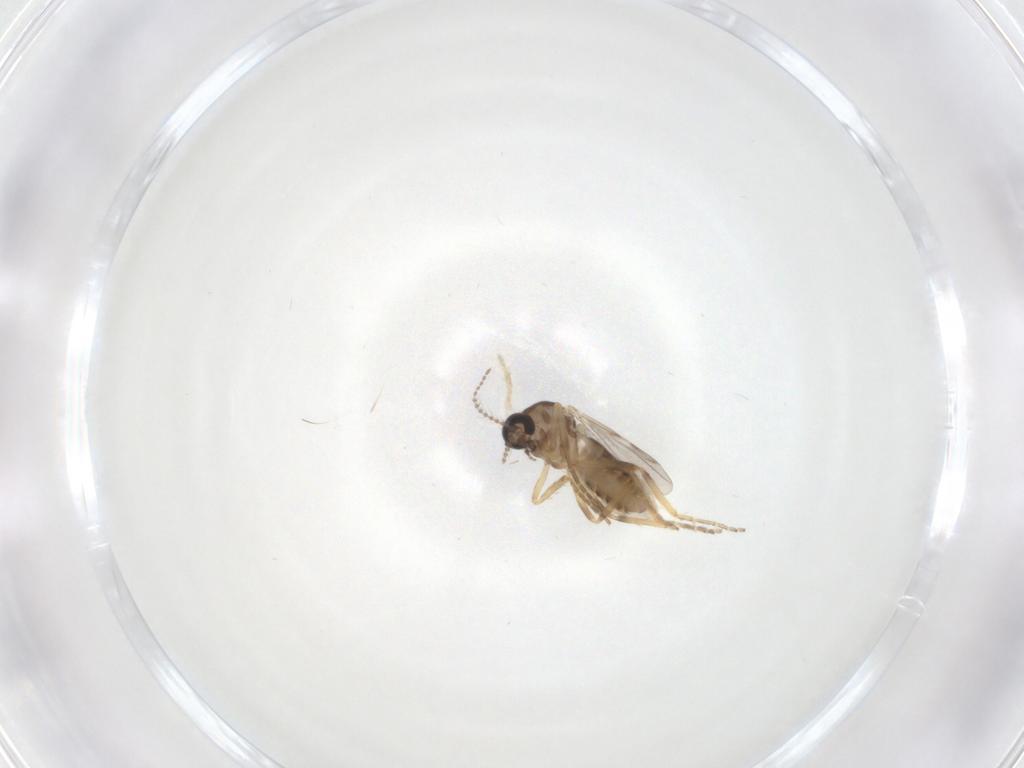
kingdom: Animalia
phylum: Arthropoda
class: Insecta
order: Diptera
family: Ceratopogonidae
